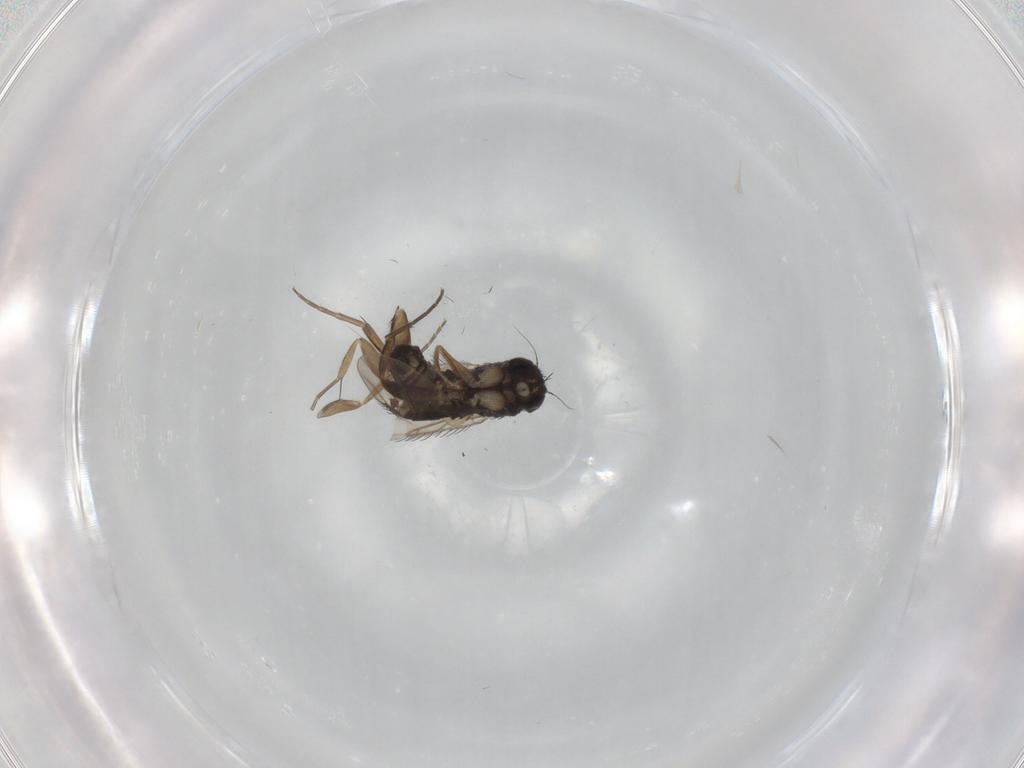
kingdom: Animalia
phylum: Arthropoda
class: Insecta
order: Diptera
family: Phoridae
